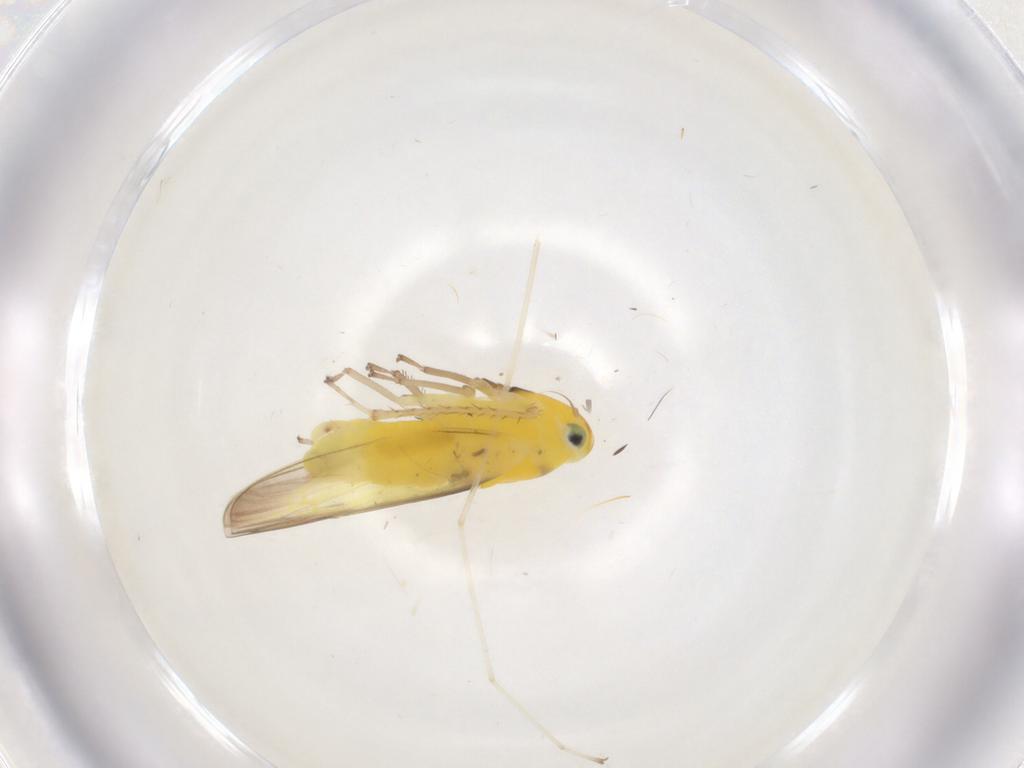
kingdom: Animalia
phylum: Arthropoda
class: Insecta
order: Hemiptera
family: Cicadellidae
